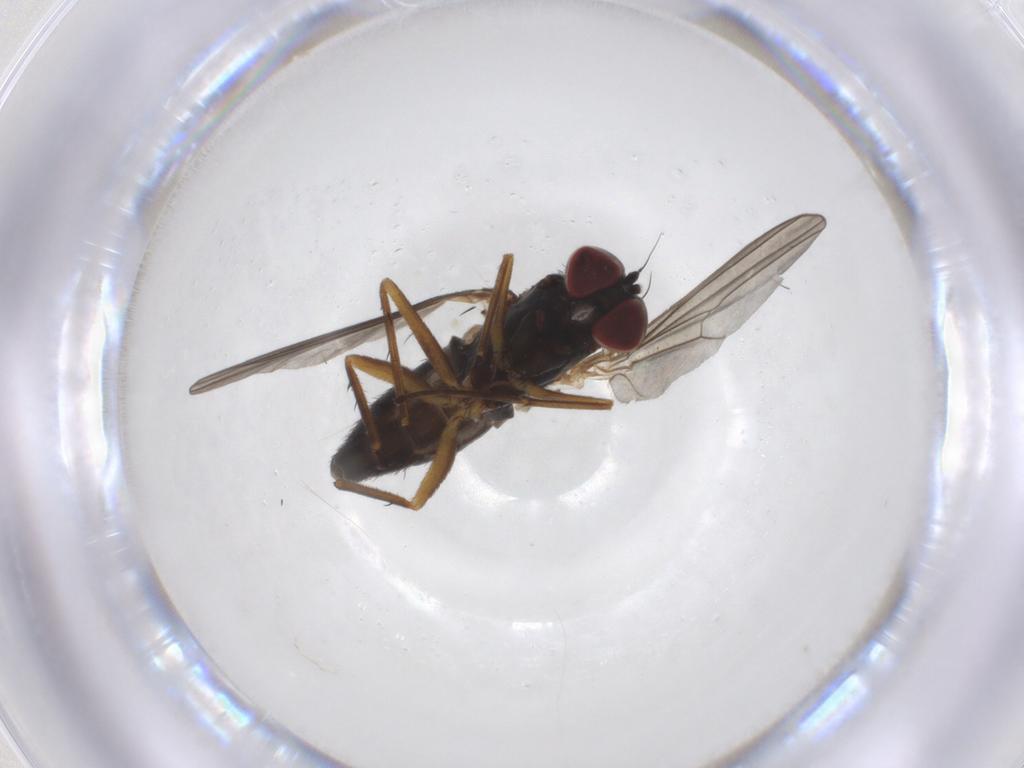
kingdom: Animalia
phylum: Arthropoda
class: Insecta
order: Diptera
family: Dolichopodidae
